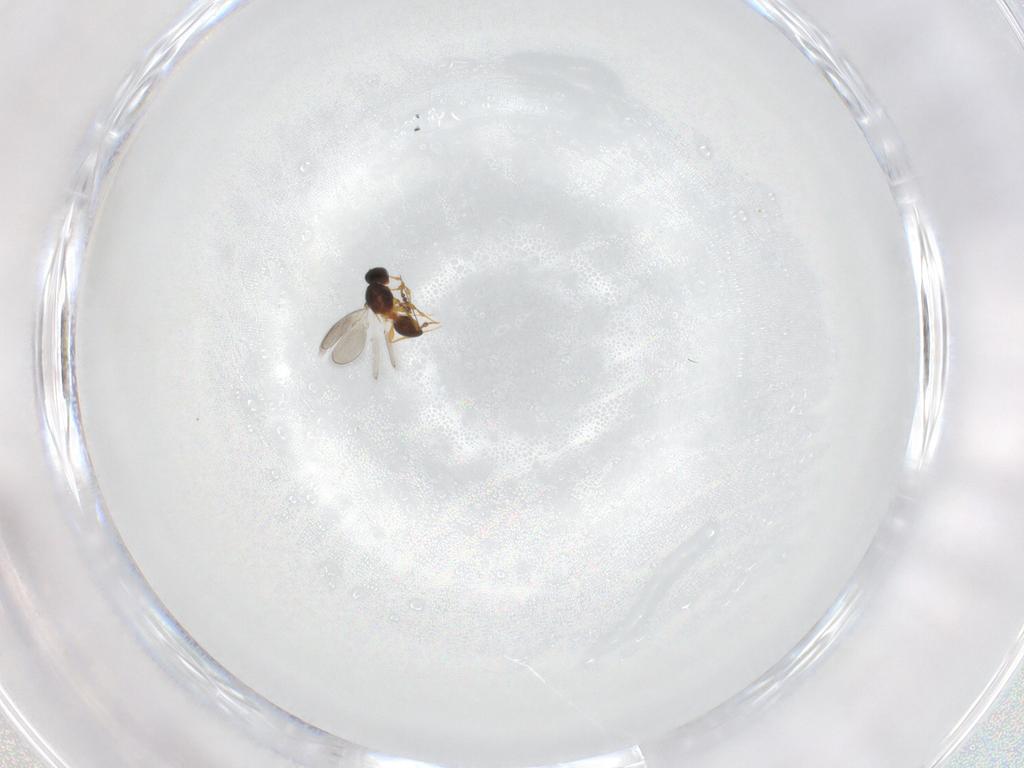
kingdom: Animalia
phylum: Arthropoda
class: Insecta
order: Hymenoptera
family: Platygastridae
